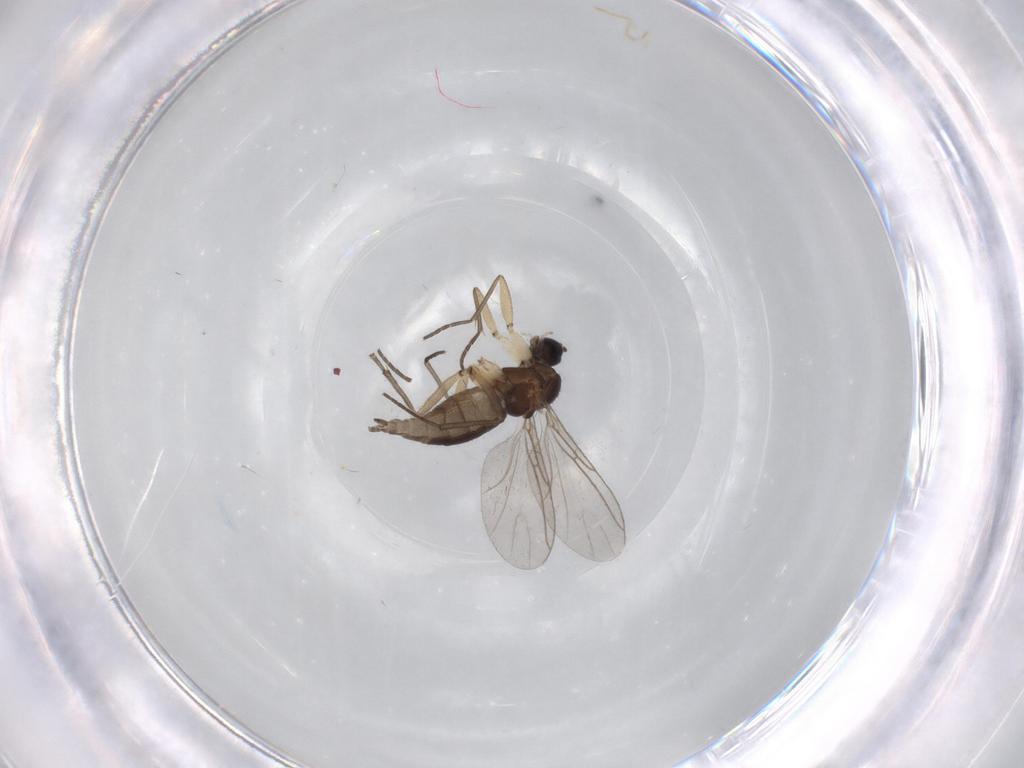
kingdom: Animalia
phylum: Arthropoda
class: Insecta
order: Diptera
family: Sciaridae
